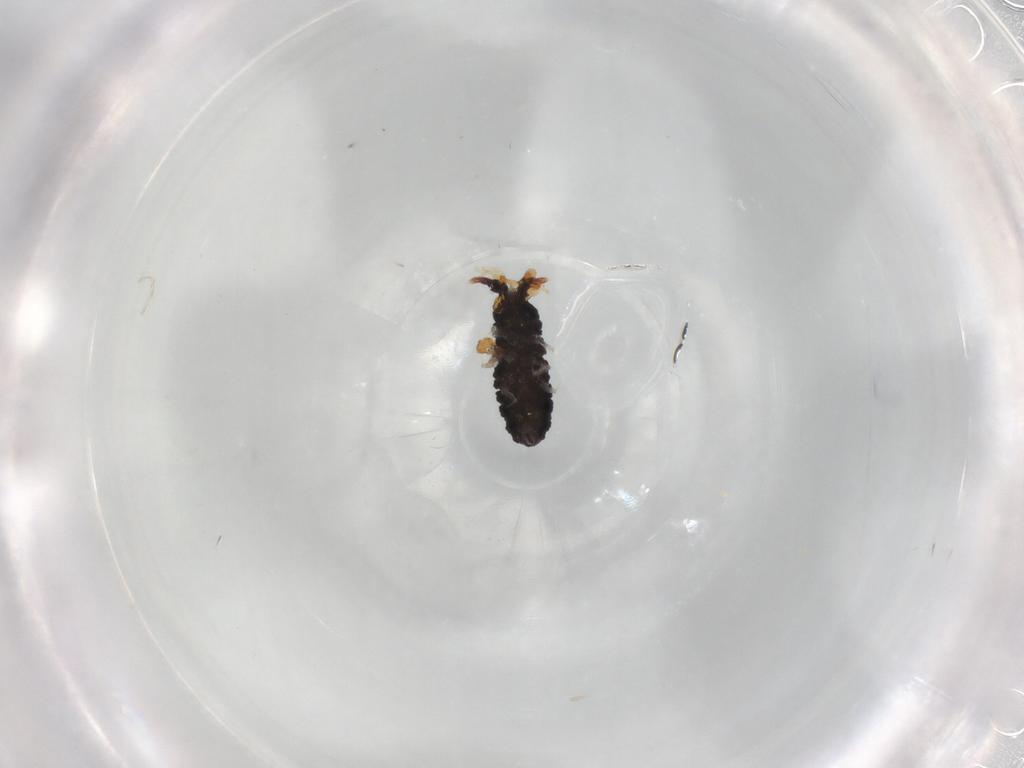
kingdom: Animalia
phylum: Arthropoda
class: Collembola
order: Poduromorpha
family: Neanuridae
